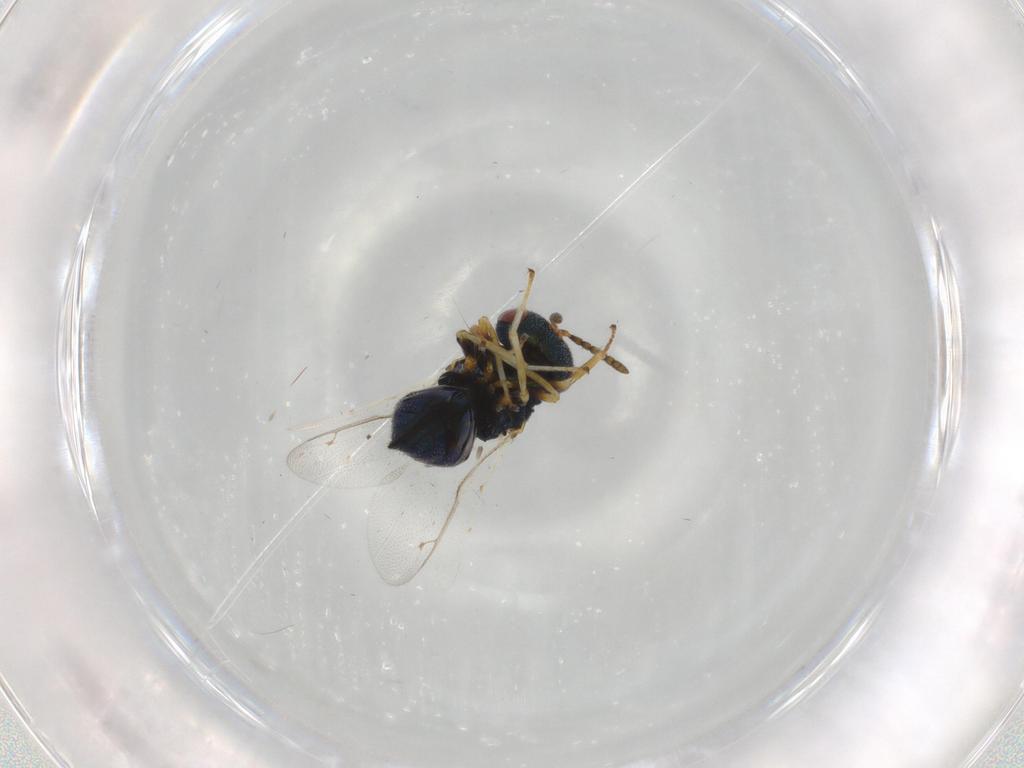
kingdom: Animalia
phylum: Arthropoda
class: Insecta
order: Hymenoptera
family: Pteromalidae
